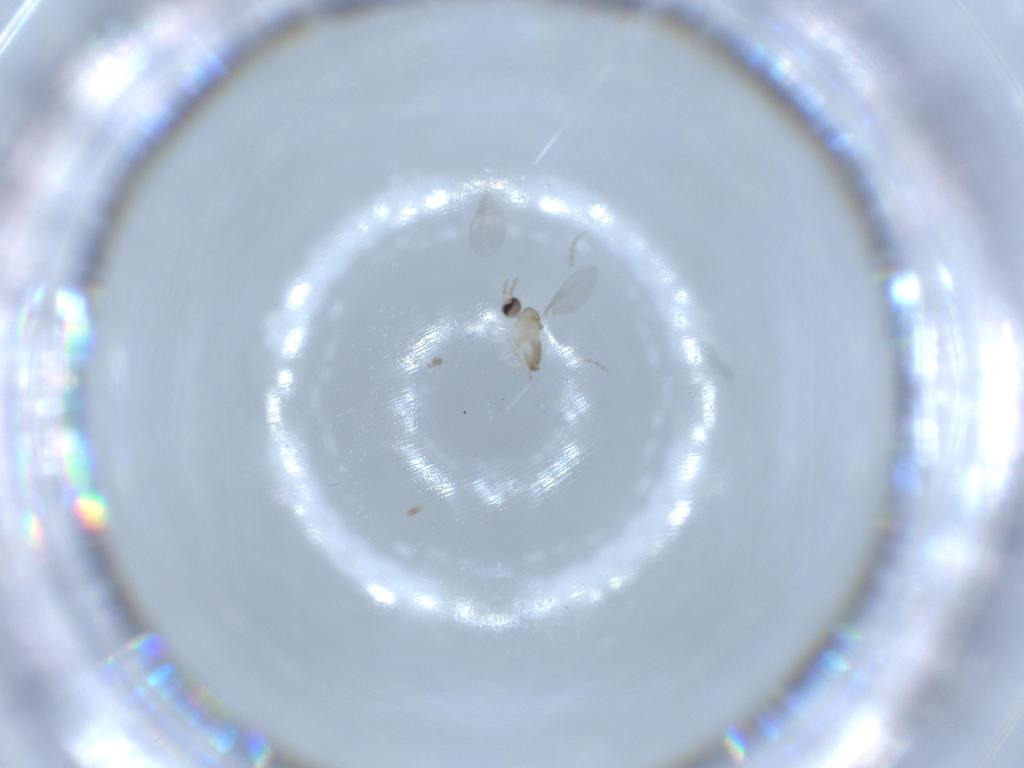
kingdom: Animalia
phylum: Arthropoda
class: Insecta
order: Diptera
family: Cecidomyiidae
